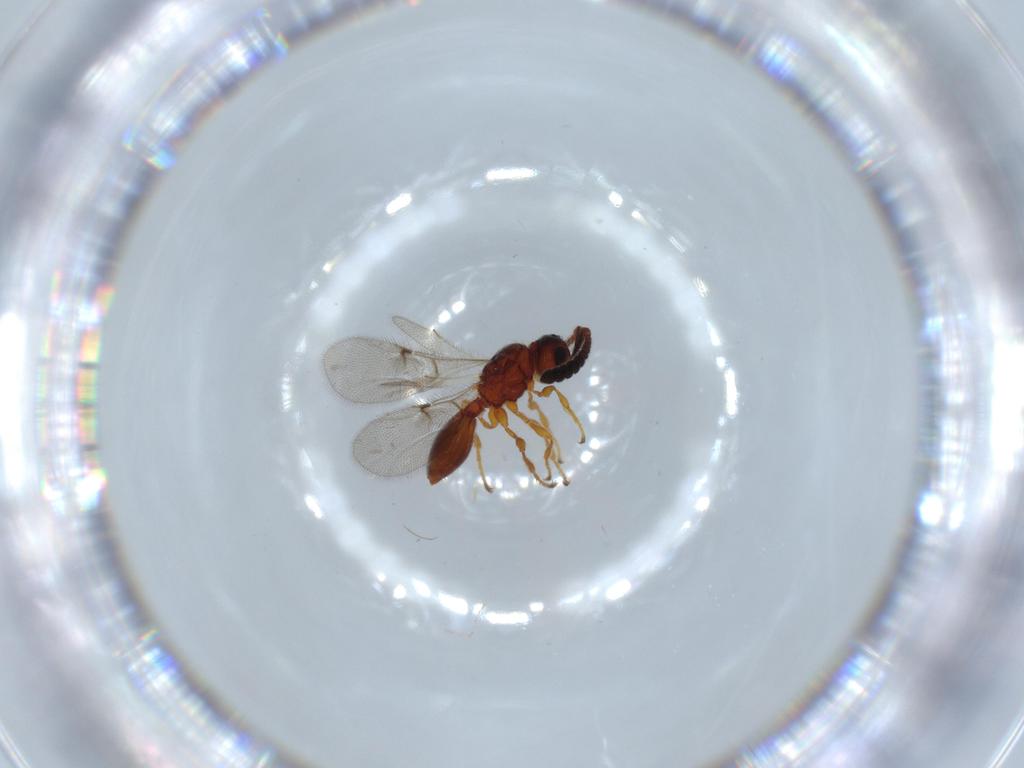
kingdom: Animalia
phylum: Arthropoda
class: Insecta
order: Hymenoptera
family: Diapriidae
